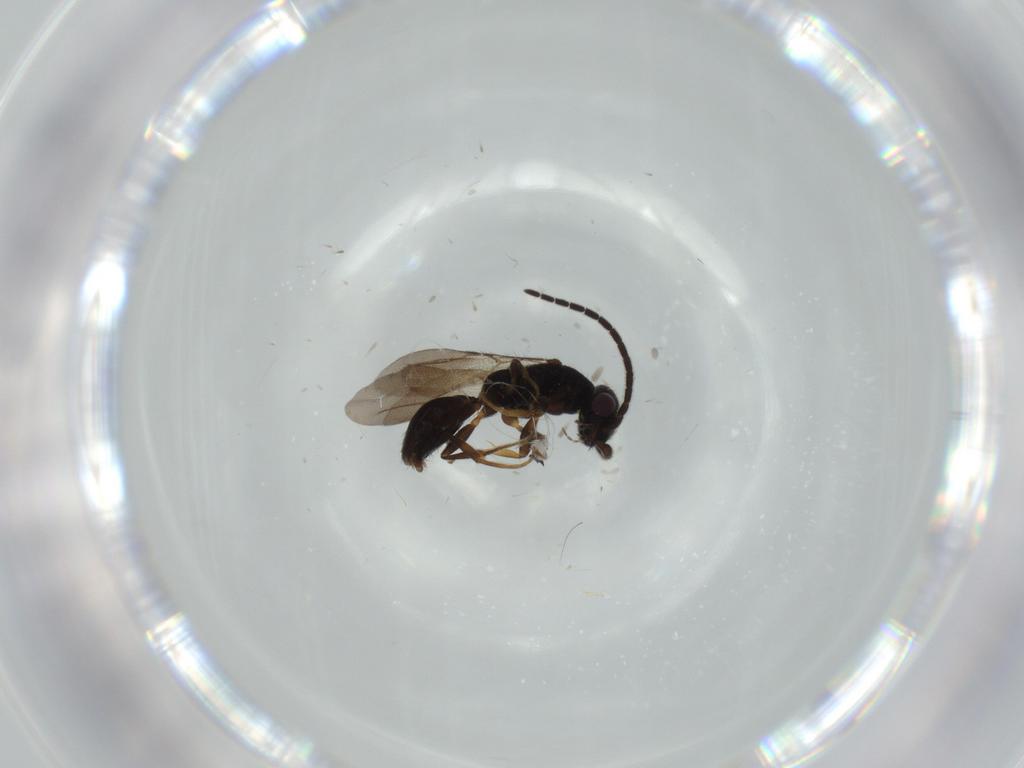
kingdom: Animalia
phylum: Arthropoda
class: Insecta
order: Hymenoptera
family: Bethylidae
